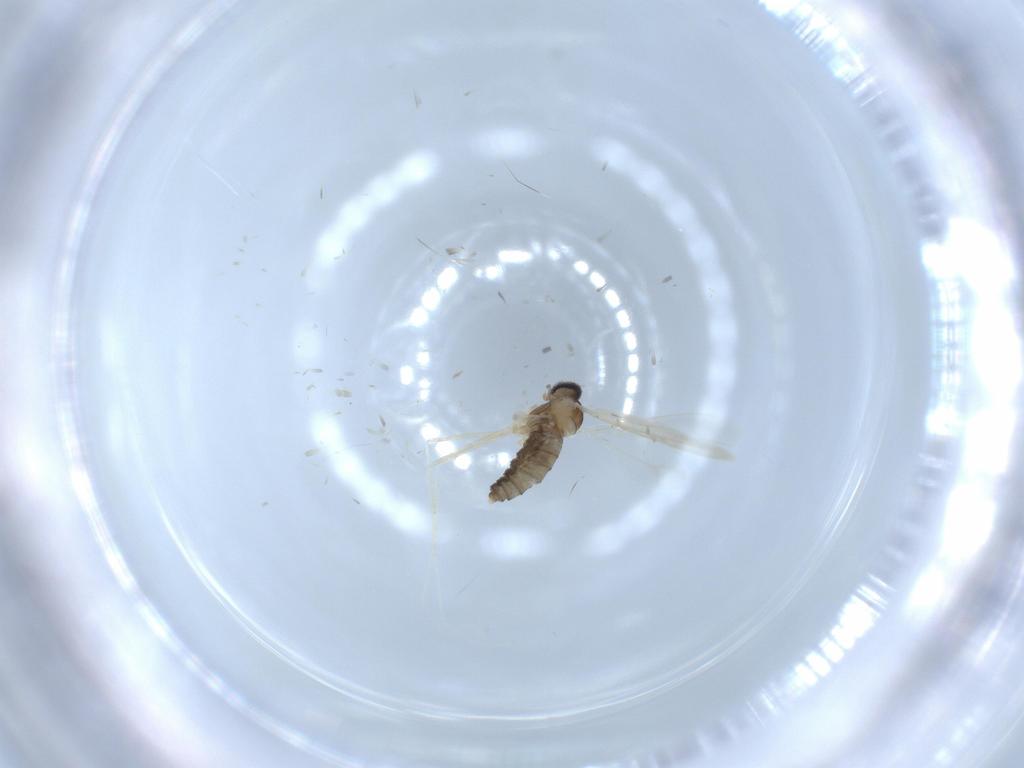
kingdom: Animalia
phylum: Arthropoda
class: Insecta
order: Diptera
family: Cecidomyiidae
